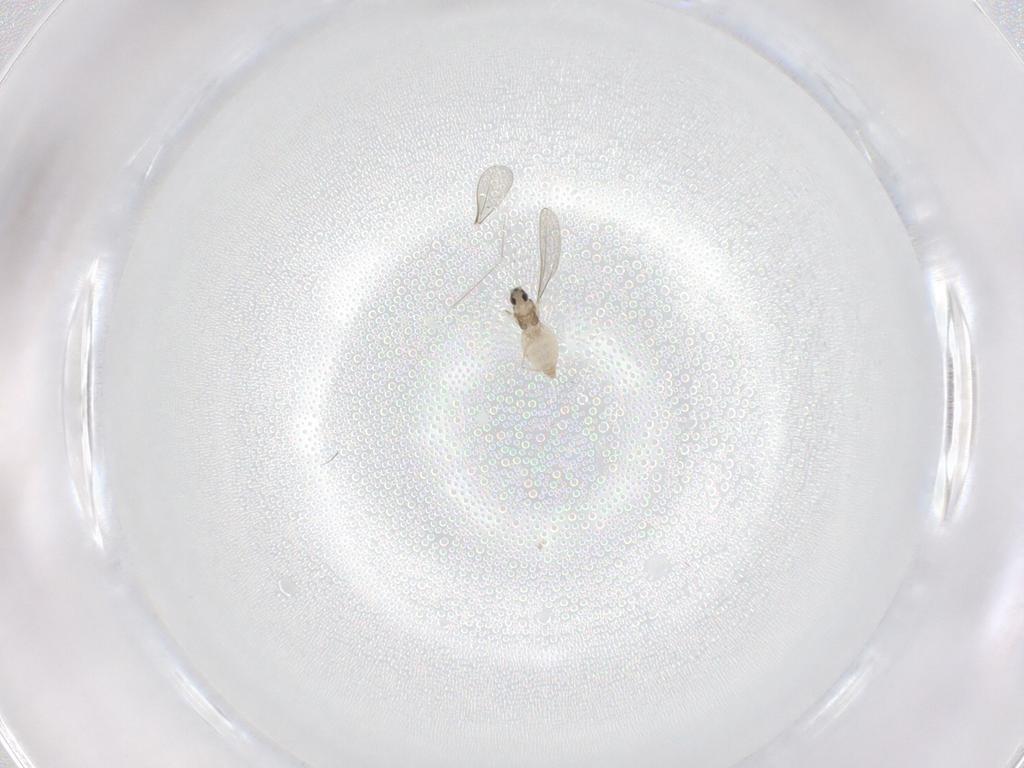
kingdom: Animalia
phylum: Arthropoda
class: Insecta
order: Diptera
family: Cecidomyiidae
